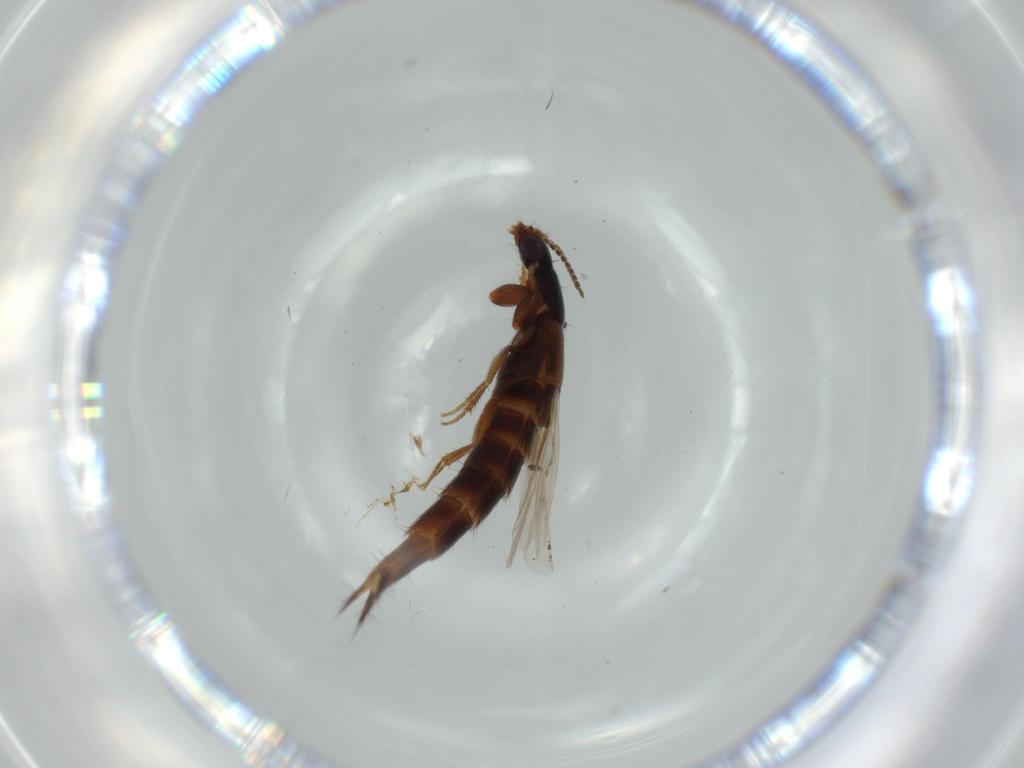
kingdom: Animalia
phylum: Arthropoda
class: Insecta
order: Coleoptera
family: Staphylinidae
